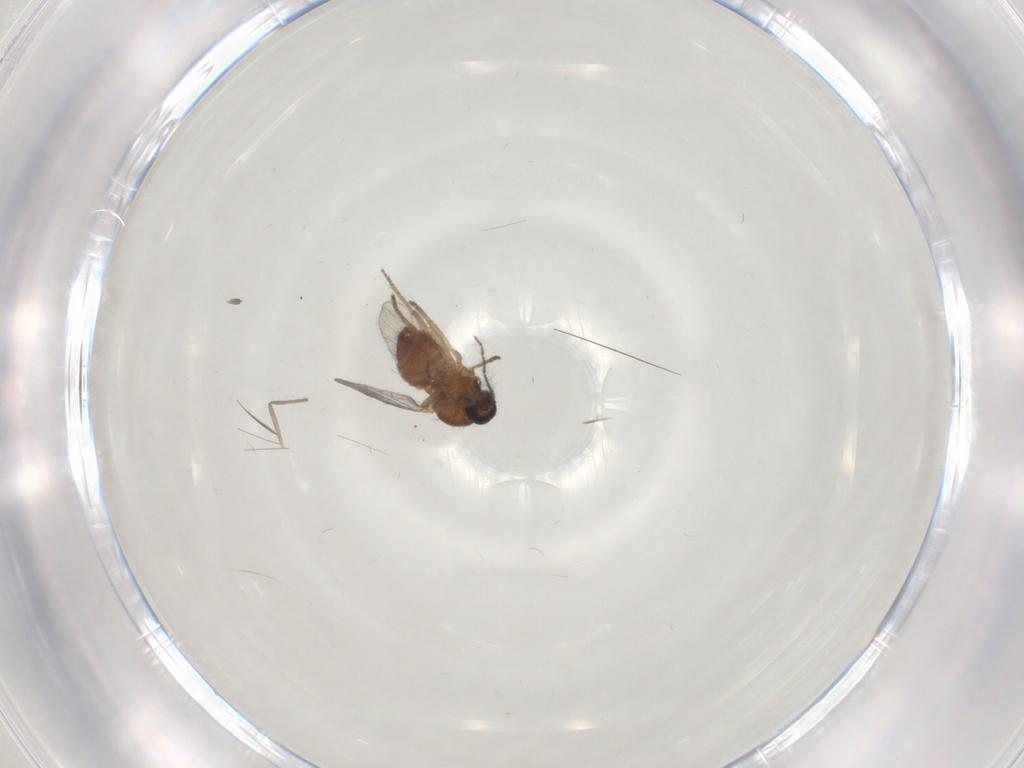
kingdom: Animalia
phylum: Arthropoda
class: Insecta
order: Diptera
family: Ceratopogonidae
